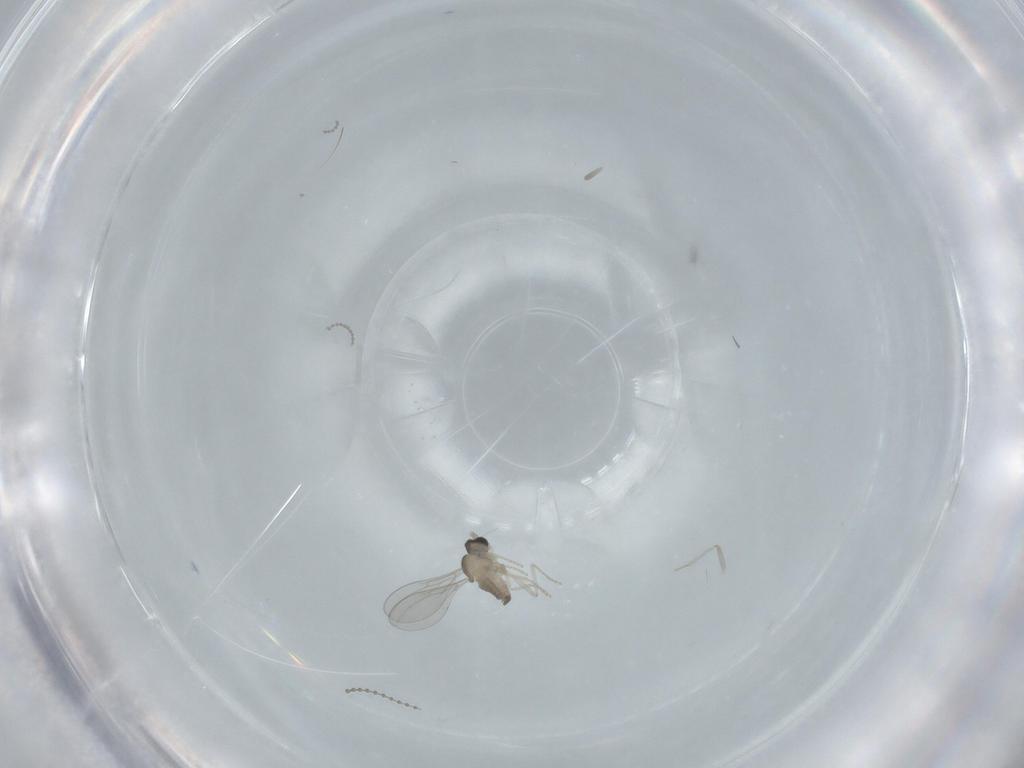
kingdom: Animalia
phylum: Arthropoda
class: Insecta
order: Diptera
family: Cecidomyiidae
